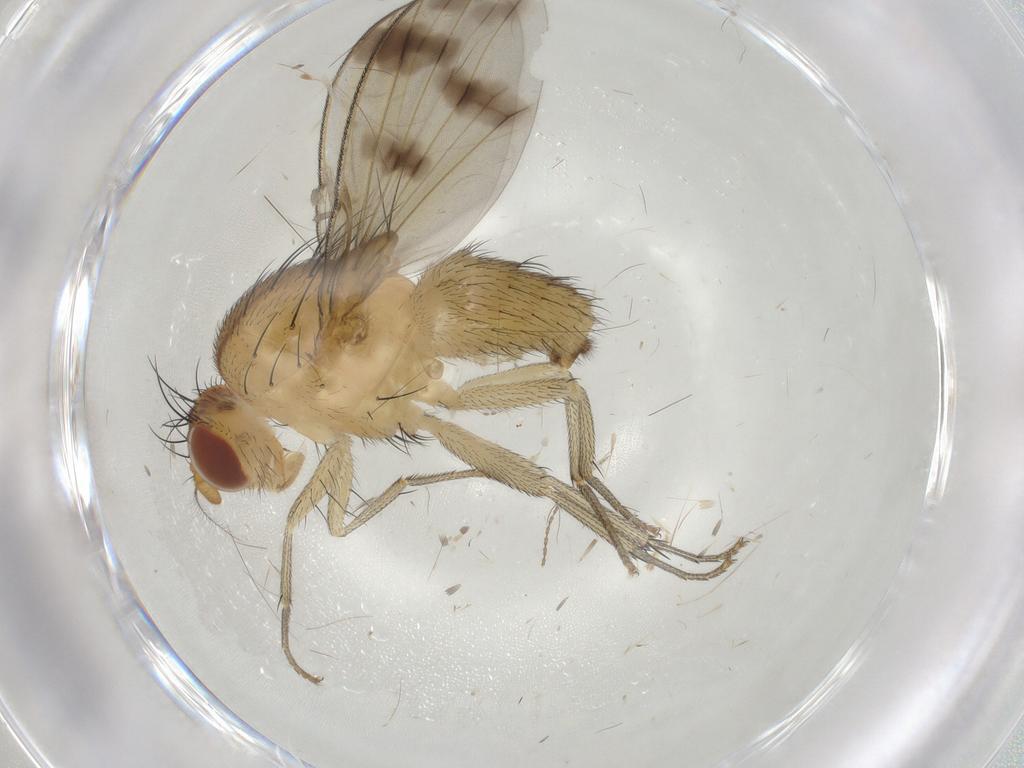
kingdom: Animalia
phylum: Arthropoda
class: Insecta
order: Diptera
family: Cecidomyiidae
